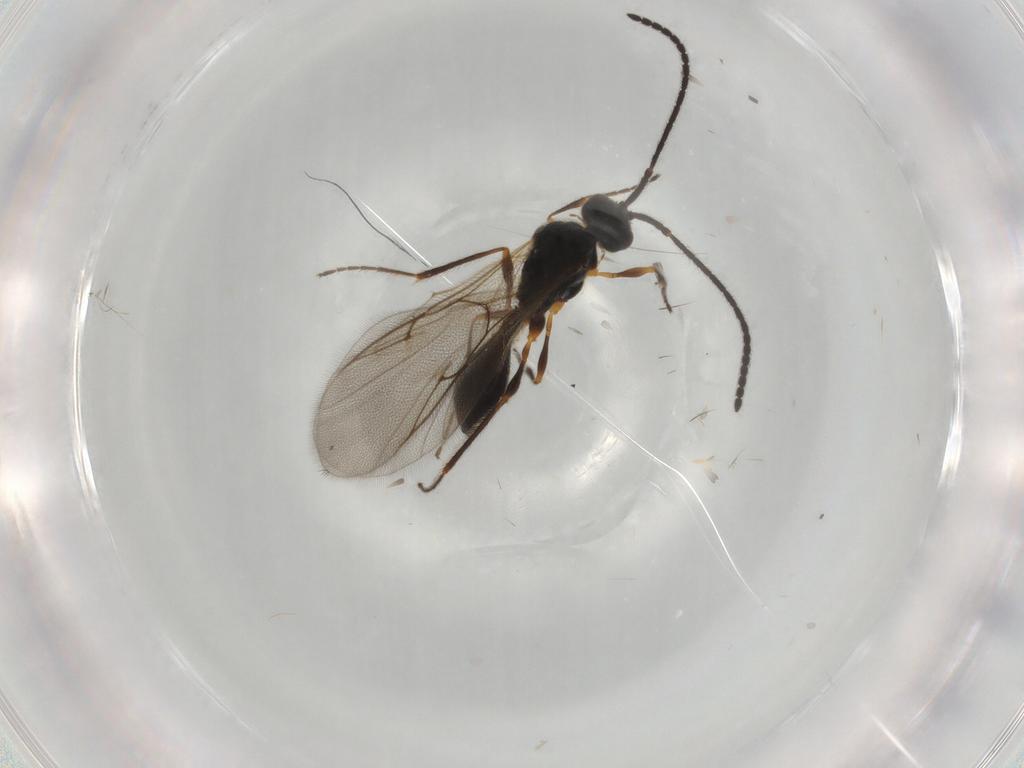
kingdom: Animalia
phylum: Arthropoda
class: Insecta
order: Hymenoptera
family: Diapriidae
